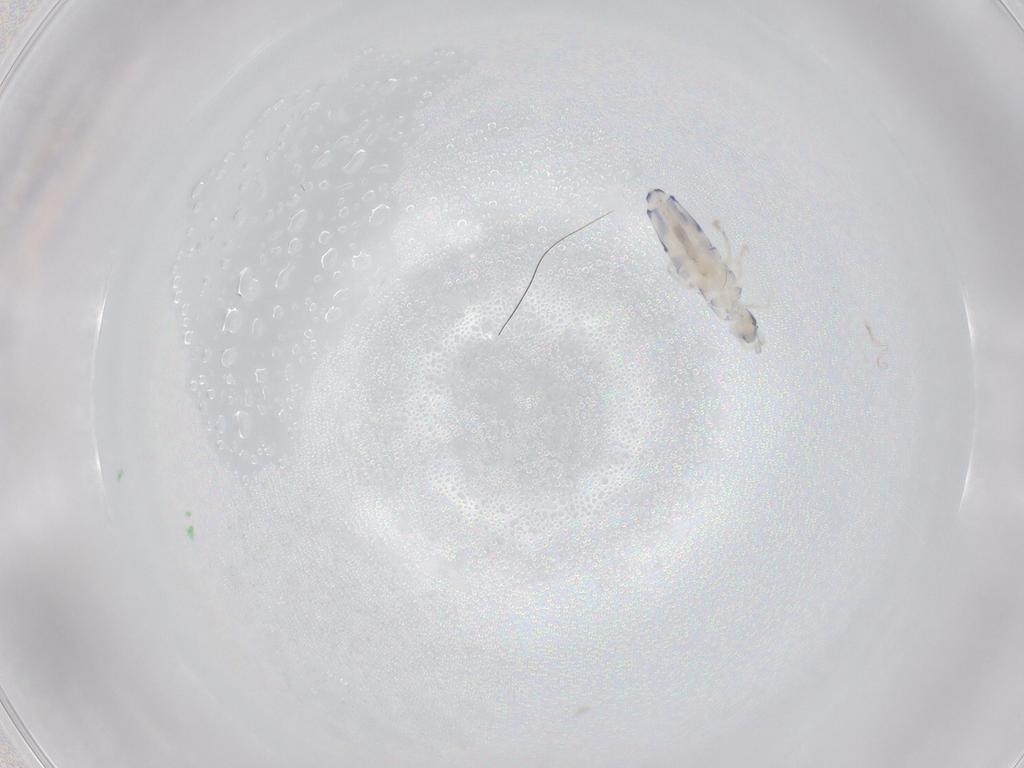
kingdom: Animalia
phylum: Arthropoda
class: Collembola
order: Entomobryomorpha
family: Entomobryidae
